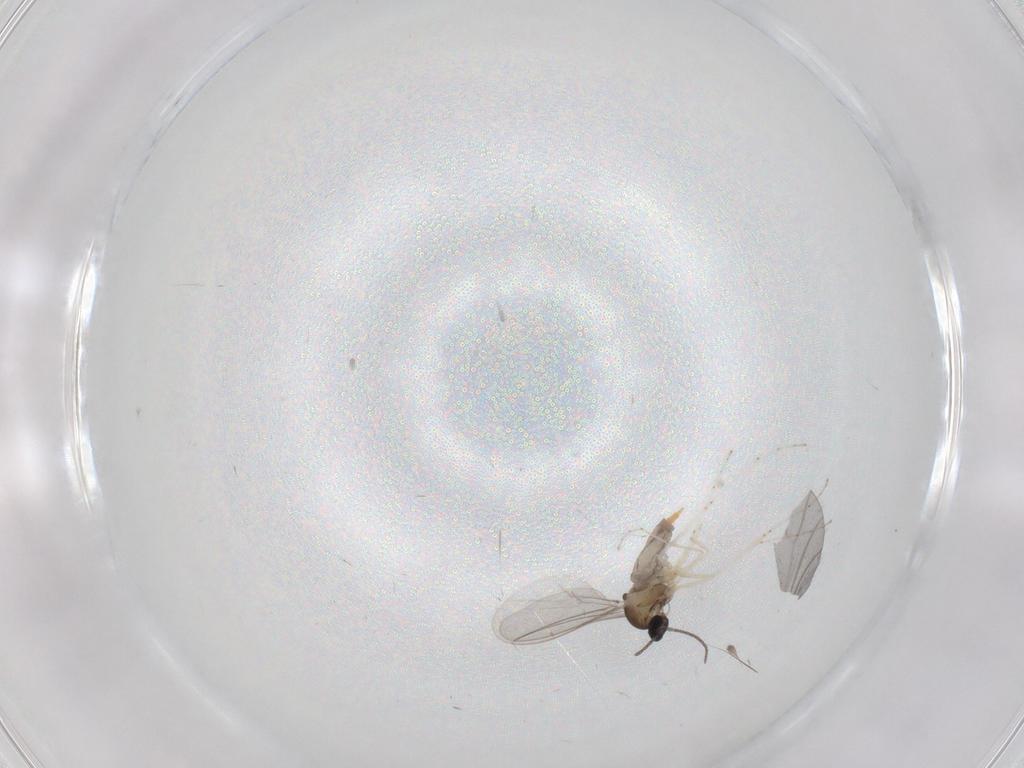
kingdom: Animalia
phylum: Arthropoda
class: Insecta
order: Diptera
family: Cecidomyiidae
